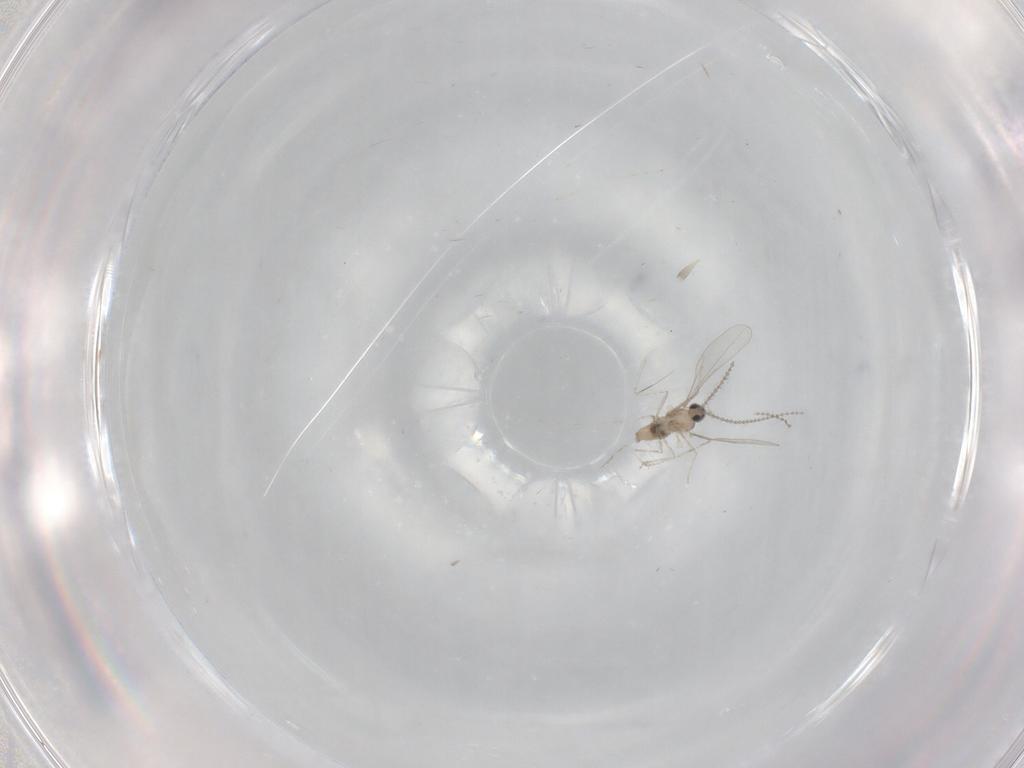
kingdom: Animalia
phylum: Arthropoda
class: Insecta
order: Diptera
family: Cecidomyiidae
